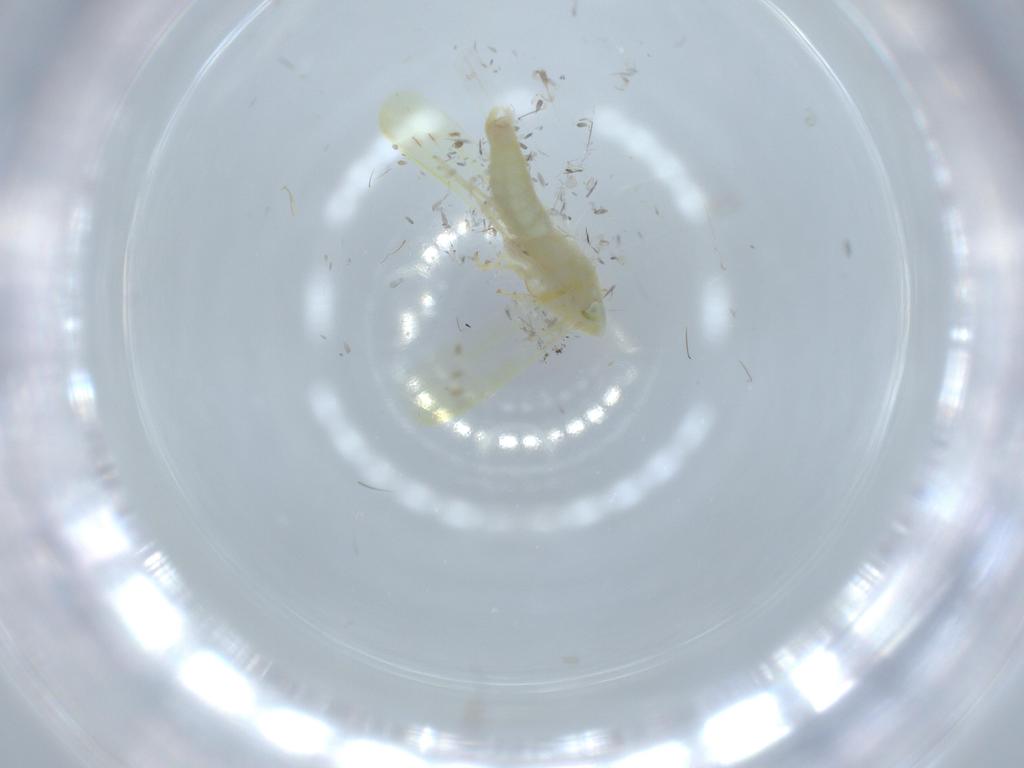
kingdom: Animalia
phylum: Arthropoda
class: Insecta
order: Hemiptera
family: Cicadellidae
